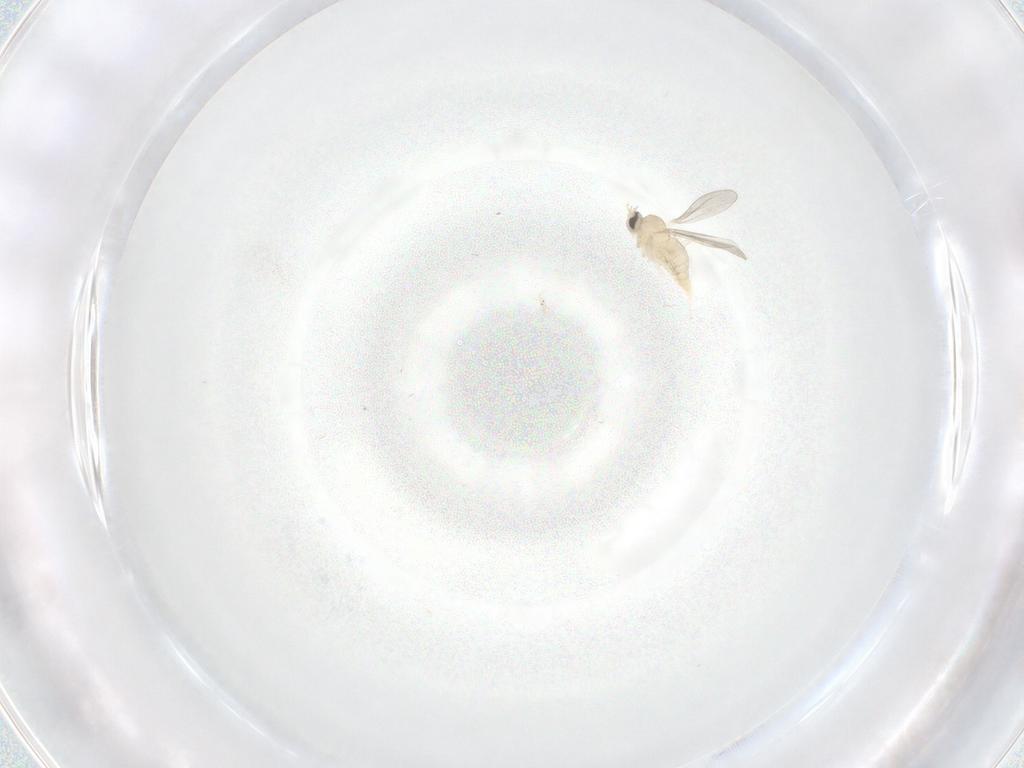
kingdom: Animalia
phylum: Arthropoda
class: Insecta
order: Diptera
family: Cecidomyiidae
